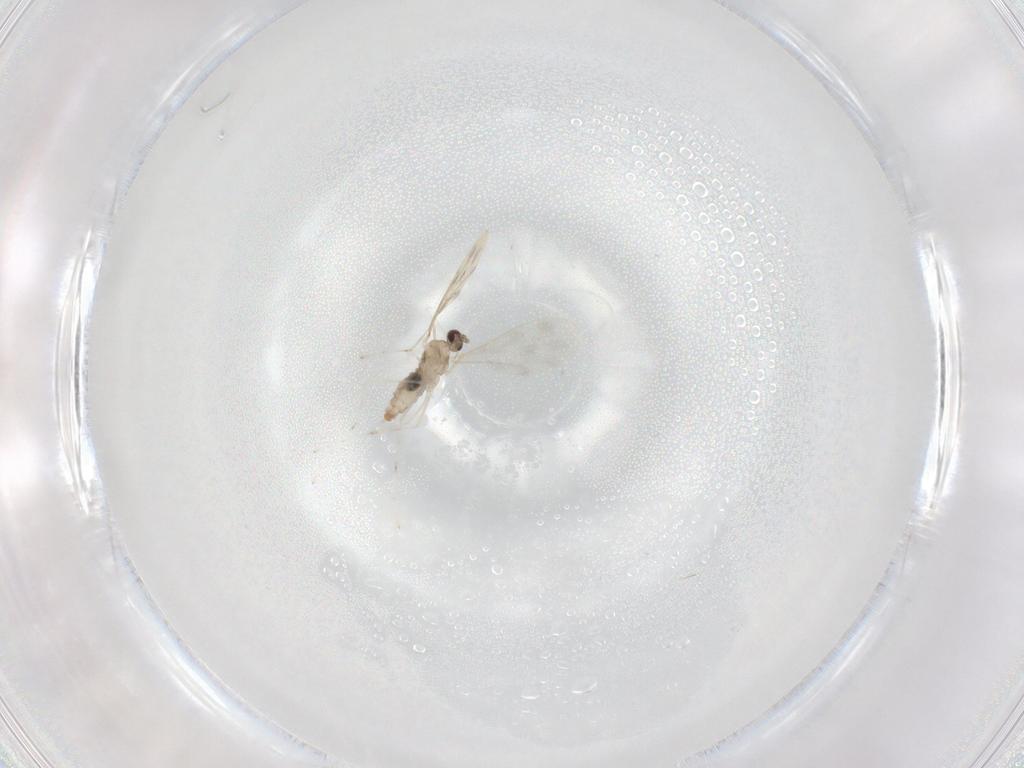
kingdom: Animalia
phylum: Arthropoda
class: Insecta
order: Diptera
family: Cecidomyiidae
